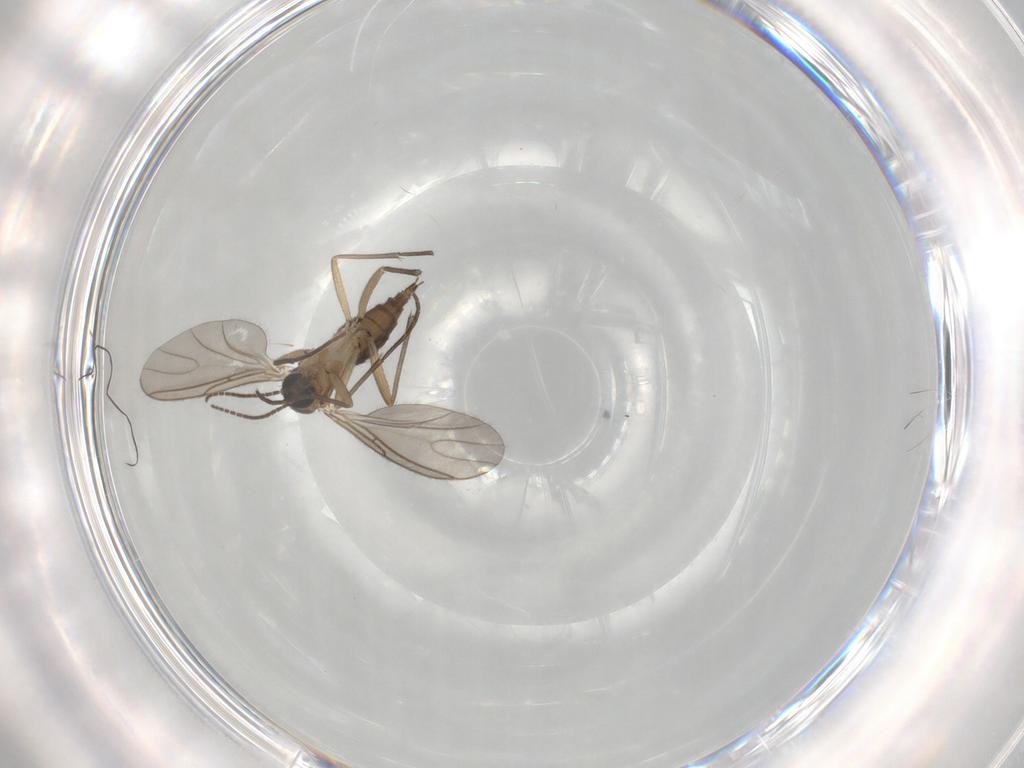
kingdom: Animalia
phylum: Arthropoda
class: Insecta
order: Diptera
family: Sciaridae
